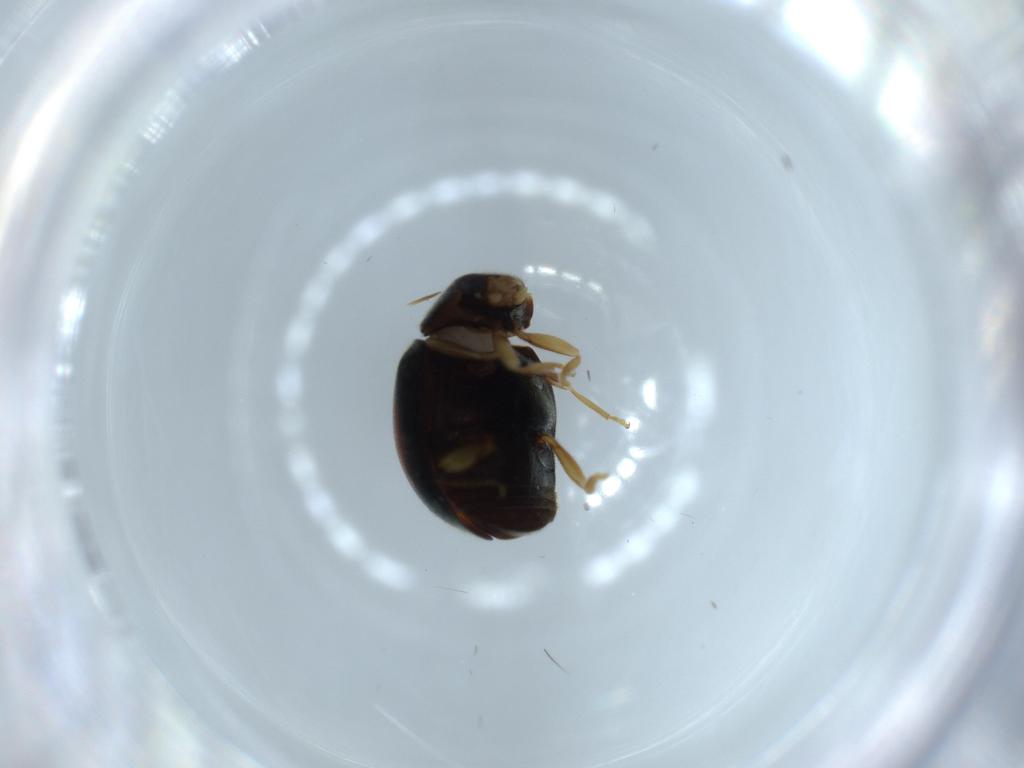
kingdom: Animalia
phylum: Arthropoda
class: Insecta
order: Coleoptera
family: Coccinellidae
